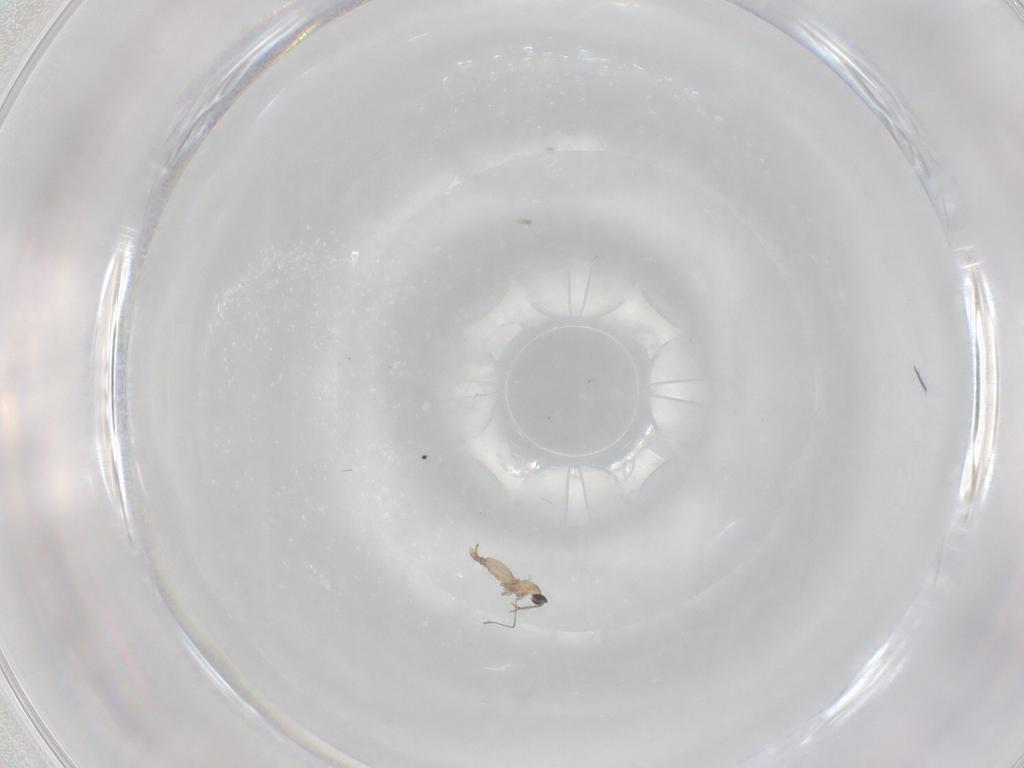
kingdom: Animalia
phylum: Arthropoda
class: Insecta
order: Diptera
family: Cecidomyiidae
